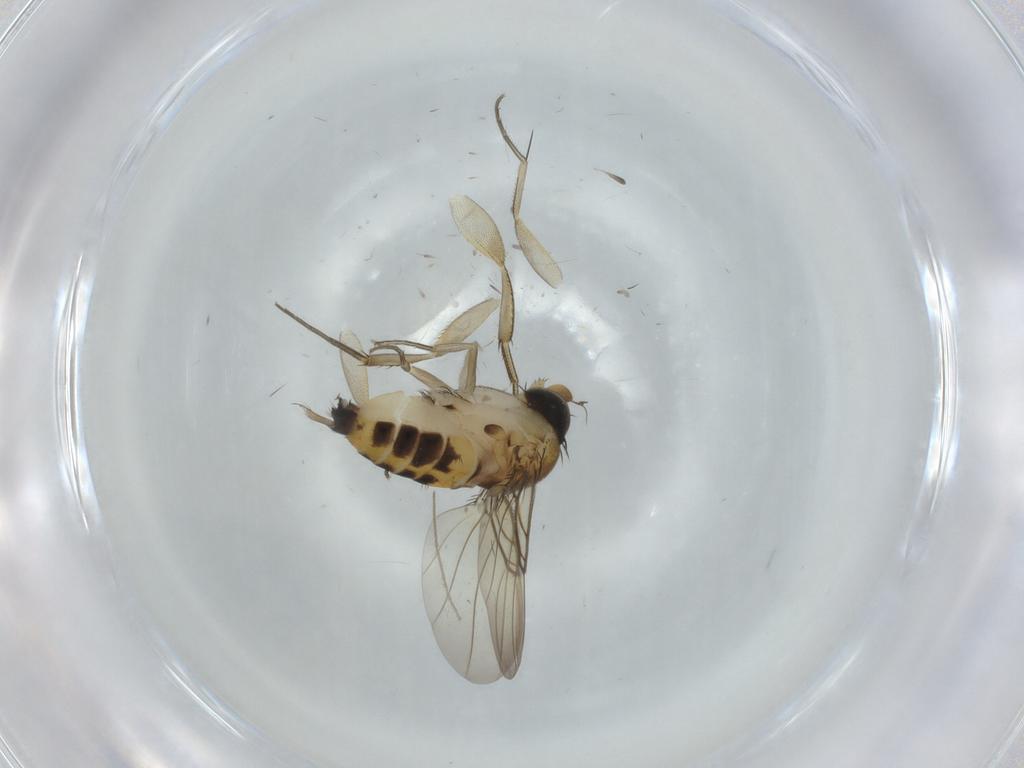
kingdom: Animalia
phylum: Arthropoda
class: Insecta
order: Diptera
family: Phoridae
